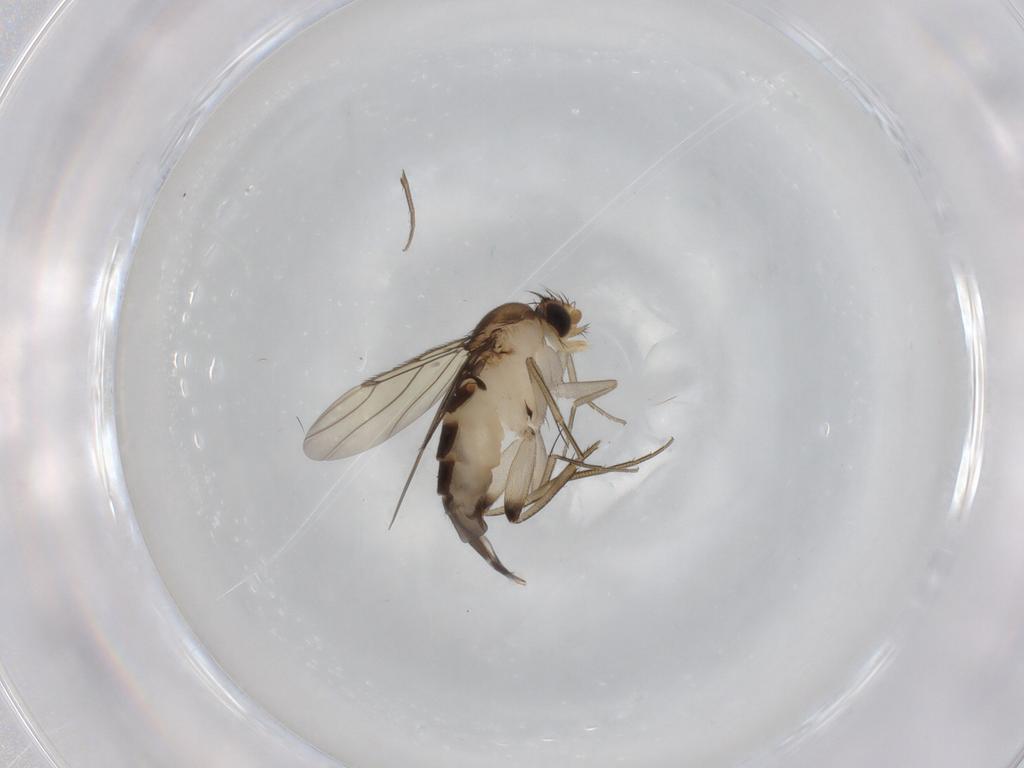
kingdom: Animalia
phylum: Arthropoda
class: Insecta
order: Diptera
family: Phoridae
